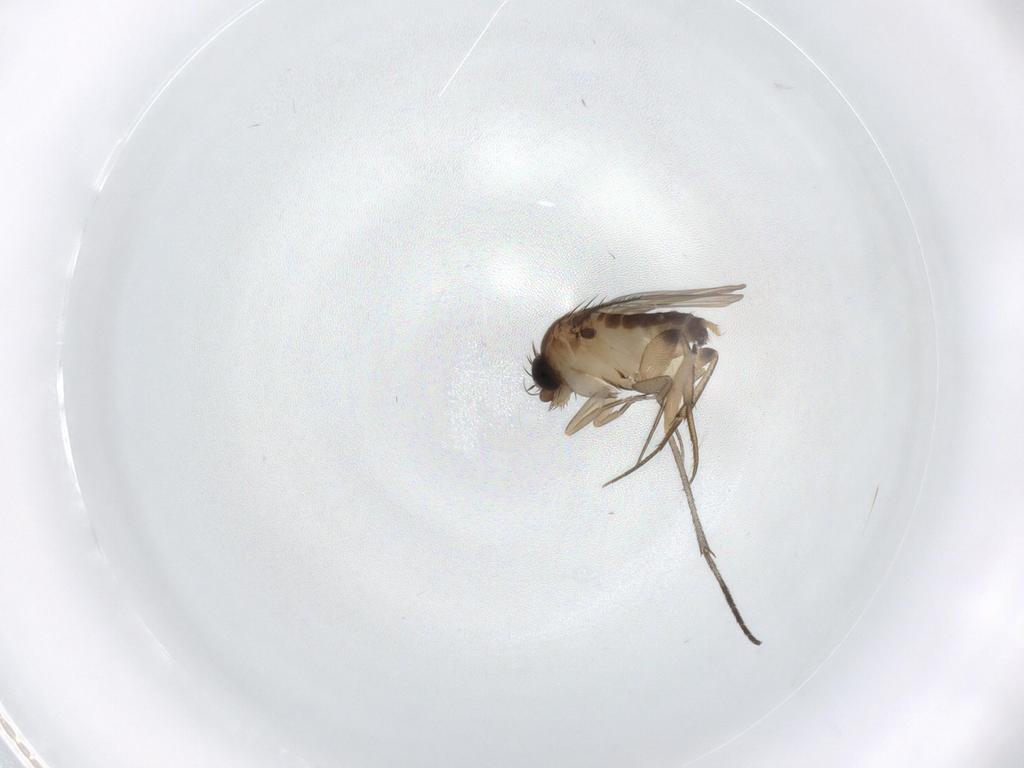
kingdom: Animalia
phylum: Arthropoda
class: Insecta
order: Diptera
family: Phoridae
